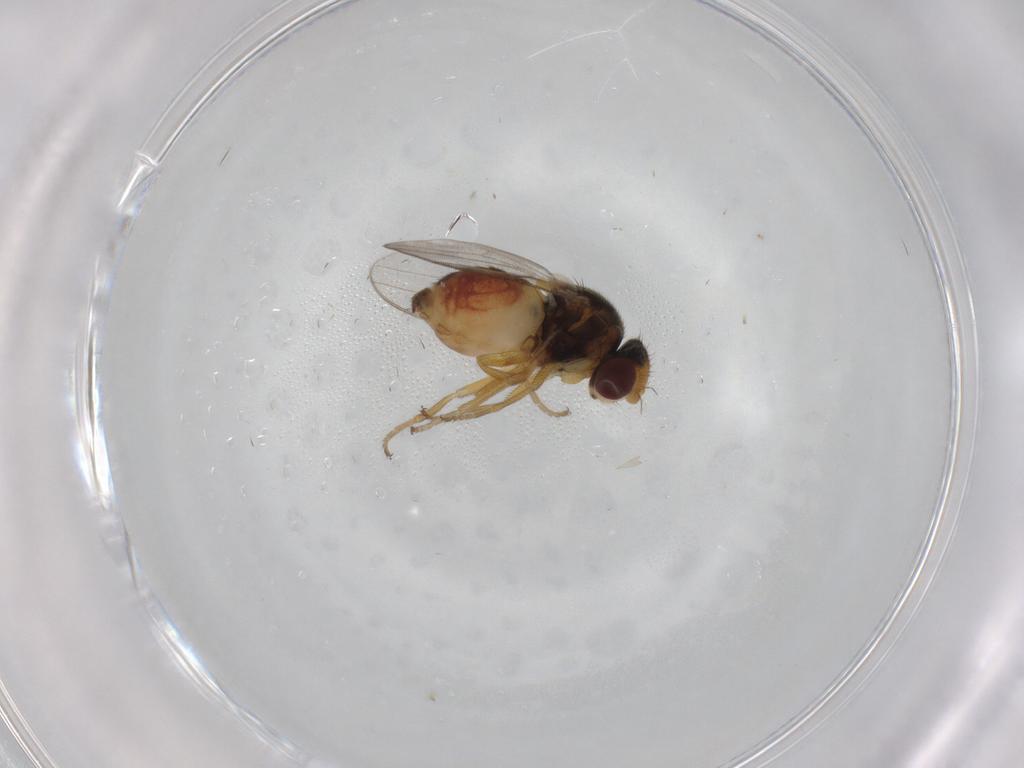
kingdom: Animalia
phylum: Arthropoda
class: Insecta
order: Diptera
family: Chloropidae
